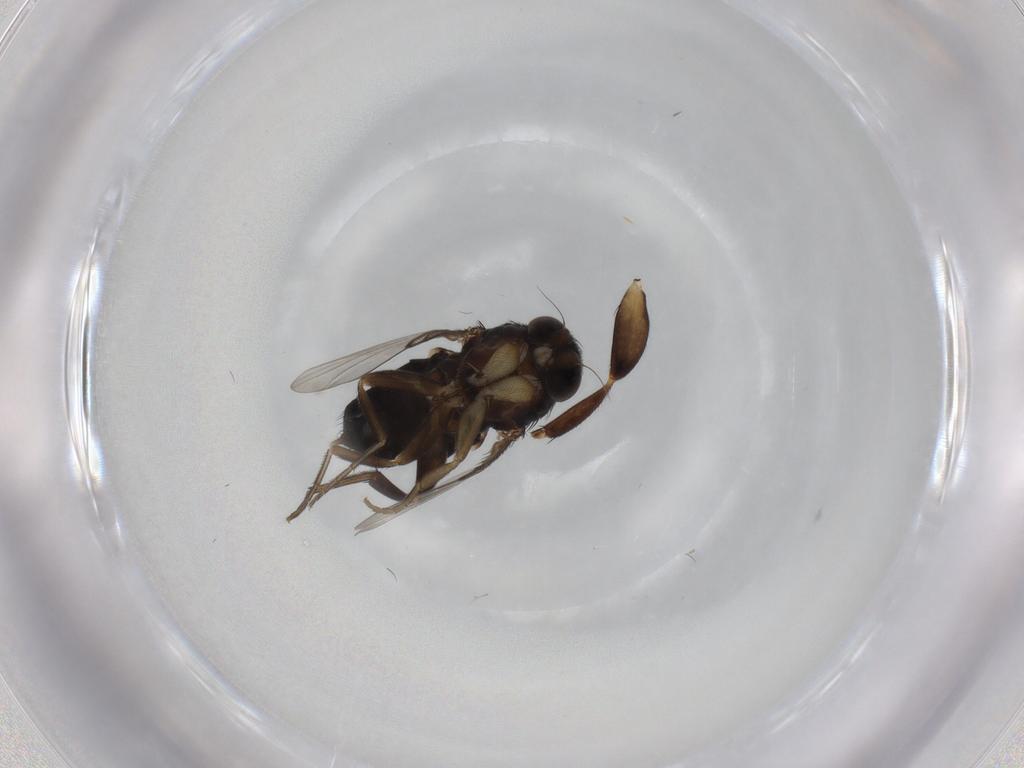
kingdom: Animalia
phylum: Arthropoda
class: Insecta
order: Diptera
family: Phoridae
